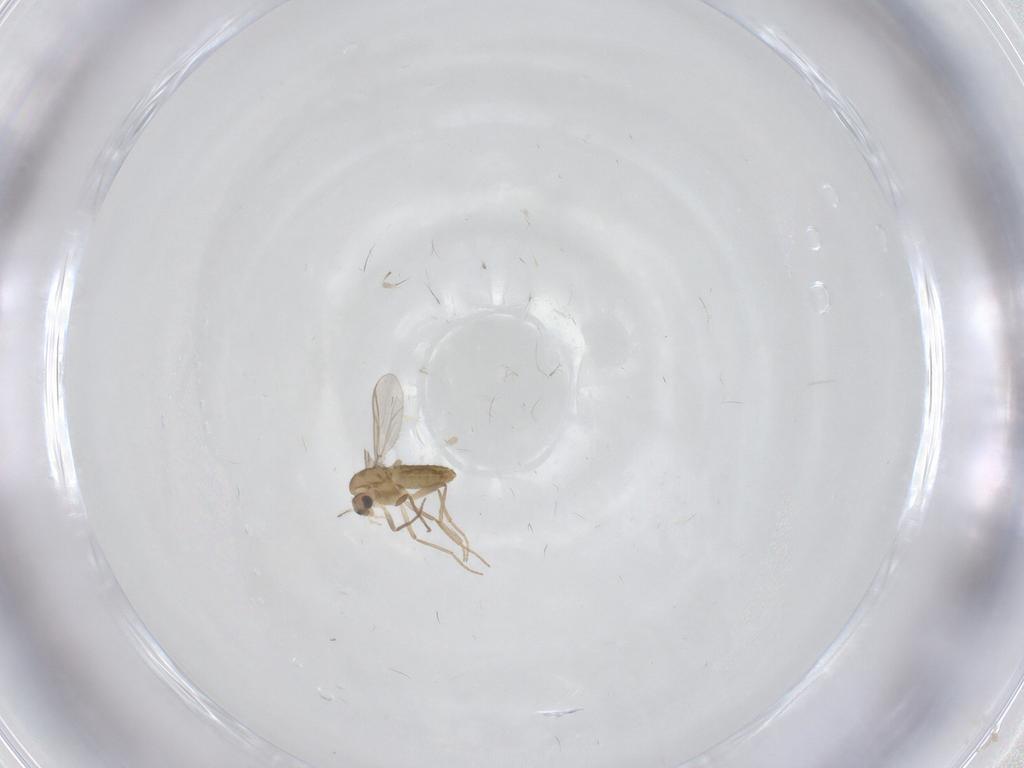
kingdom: Animalia
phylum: Arthropoda
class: Insecta
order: Diptera
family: Chironomidae
